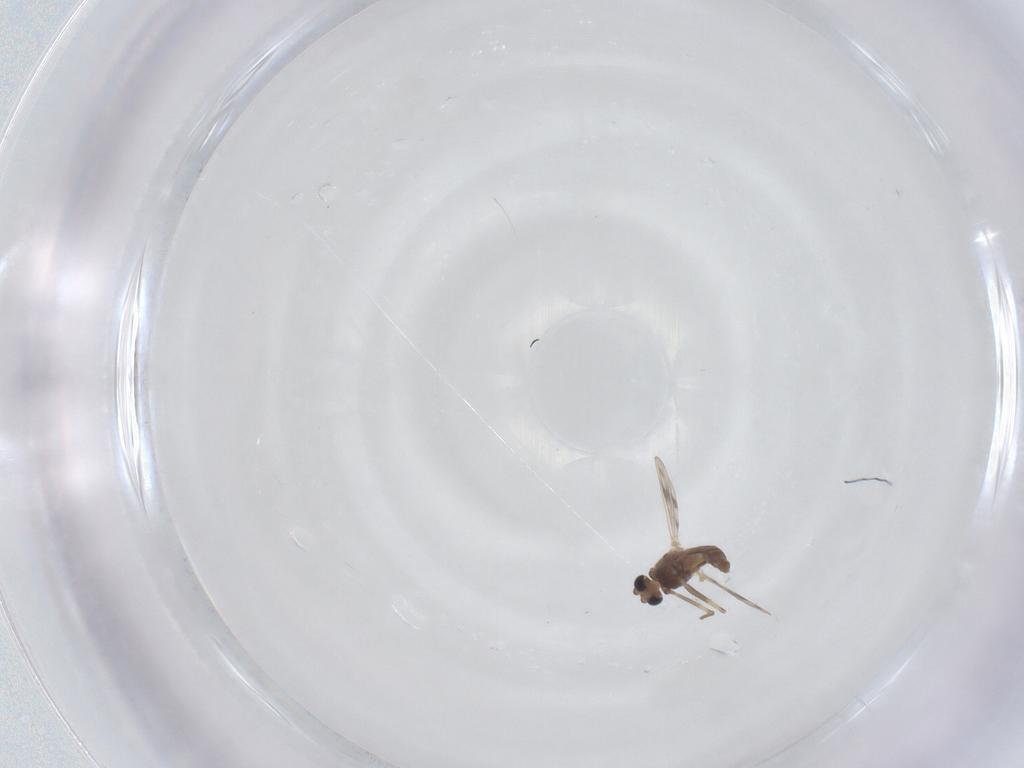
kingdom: Animalia
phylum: Arthropoda
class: Insecta
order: Diptera
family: Chironomidae
